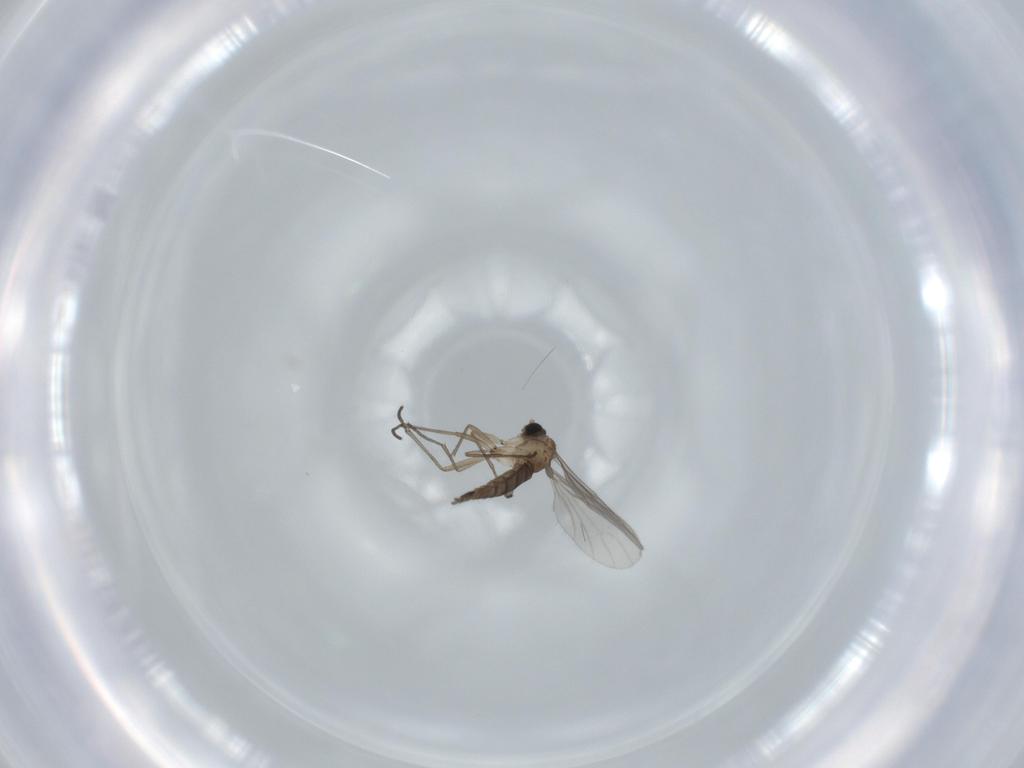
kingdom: Animalia
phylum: Arthropoda
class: Insecta
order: Diptera
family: Sciaridae
